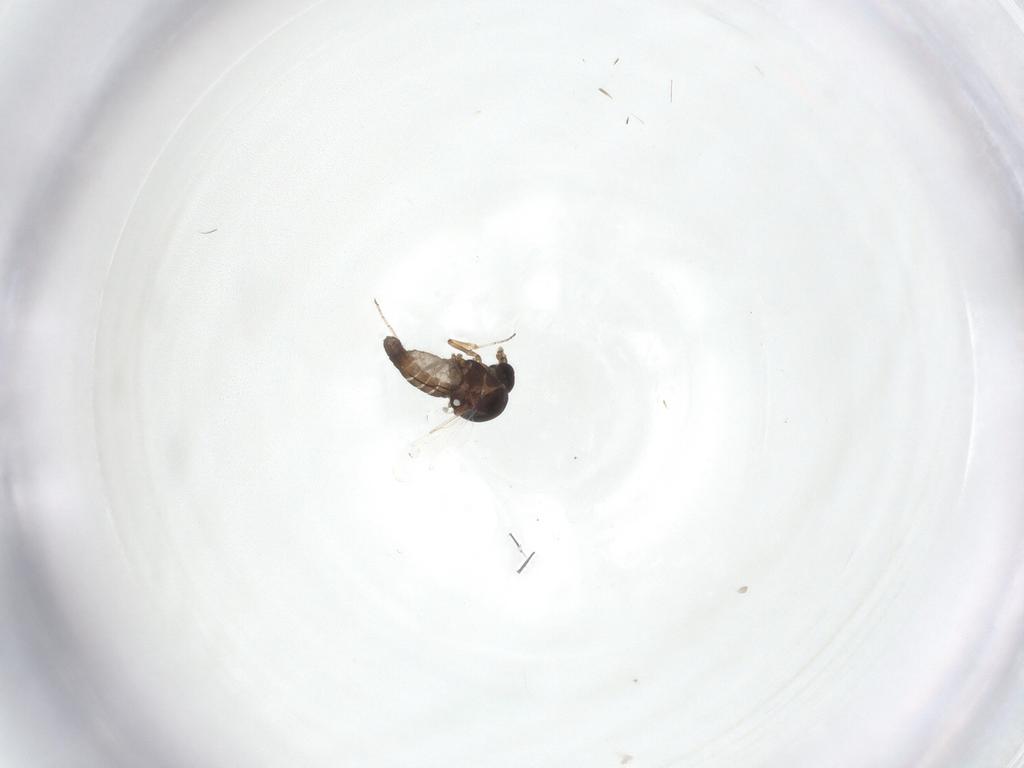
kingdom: Animalia
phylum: Arthropoda
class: Insecta
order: Diptera
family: Ceratopogonidae
